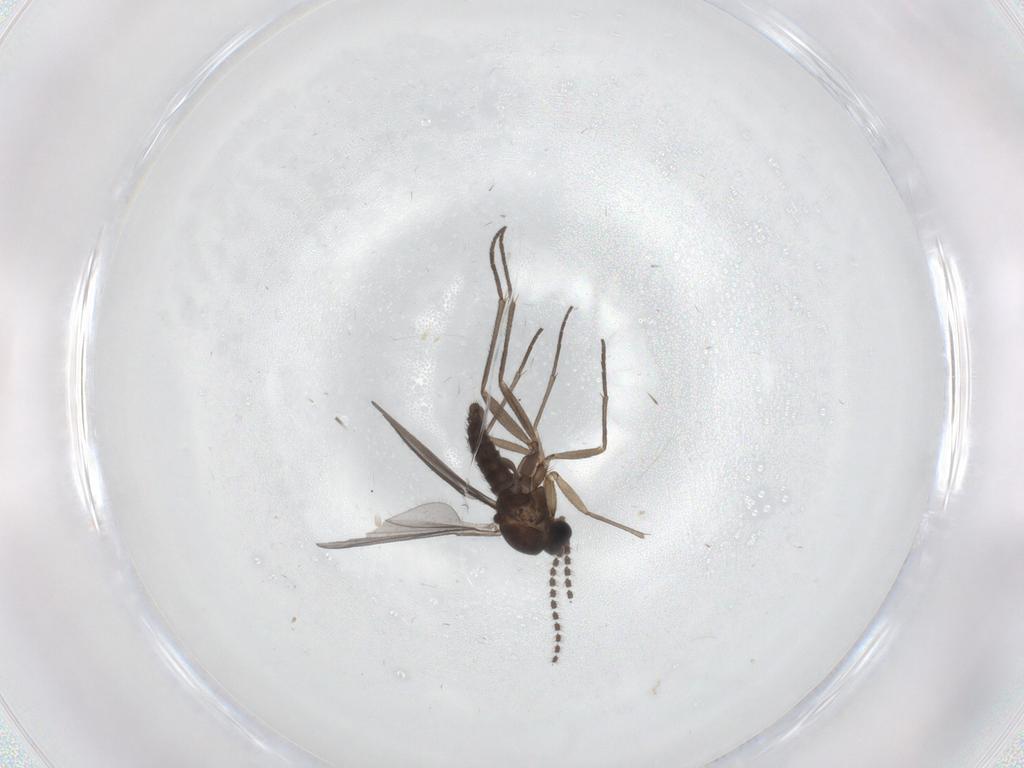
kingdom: Animalia
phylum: Arthropoda
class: Insecta
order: Diptera
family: Sciaridae
